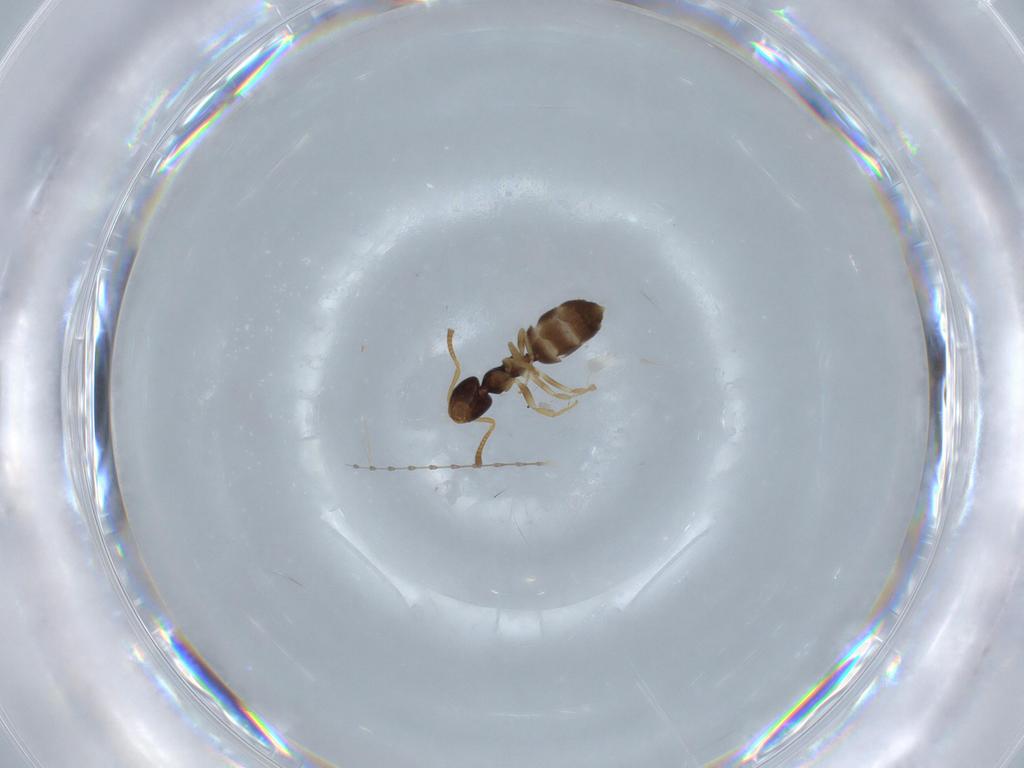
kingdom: Animalia
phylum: Arthropoda
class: Insecta
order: Hymenoptera
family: Formicidae
